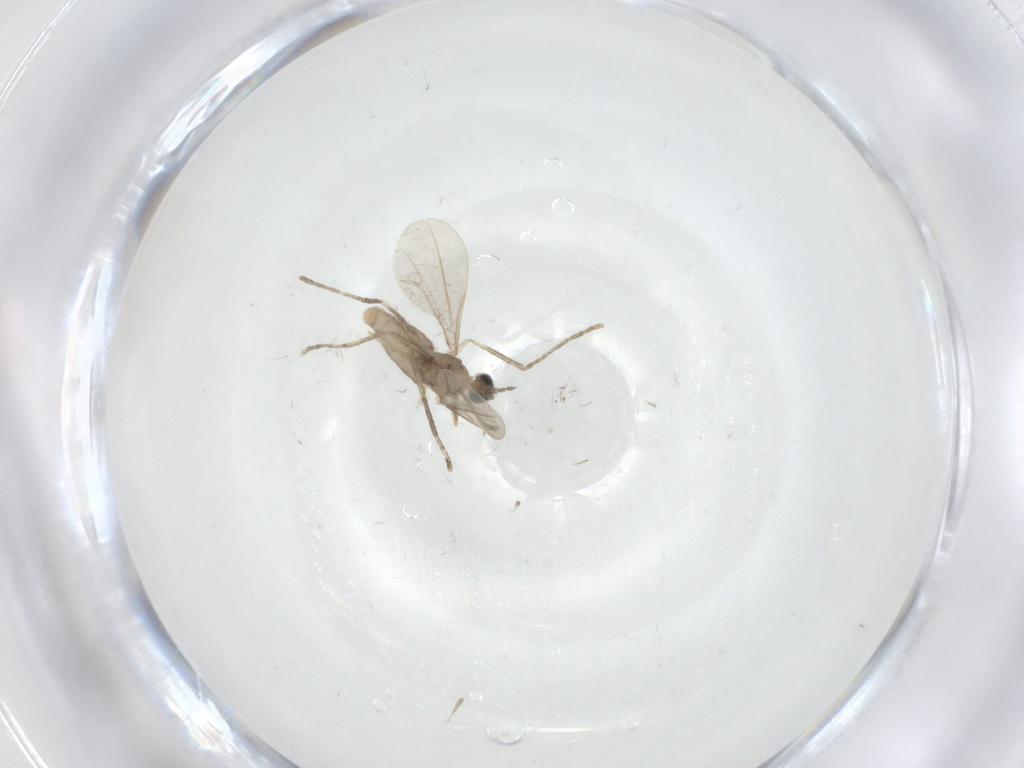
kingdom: Animalia
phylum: Arthropoda
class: Insecta
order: Diptera
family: Cecidomyiidae
